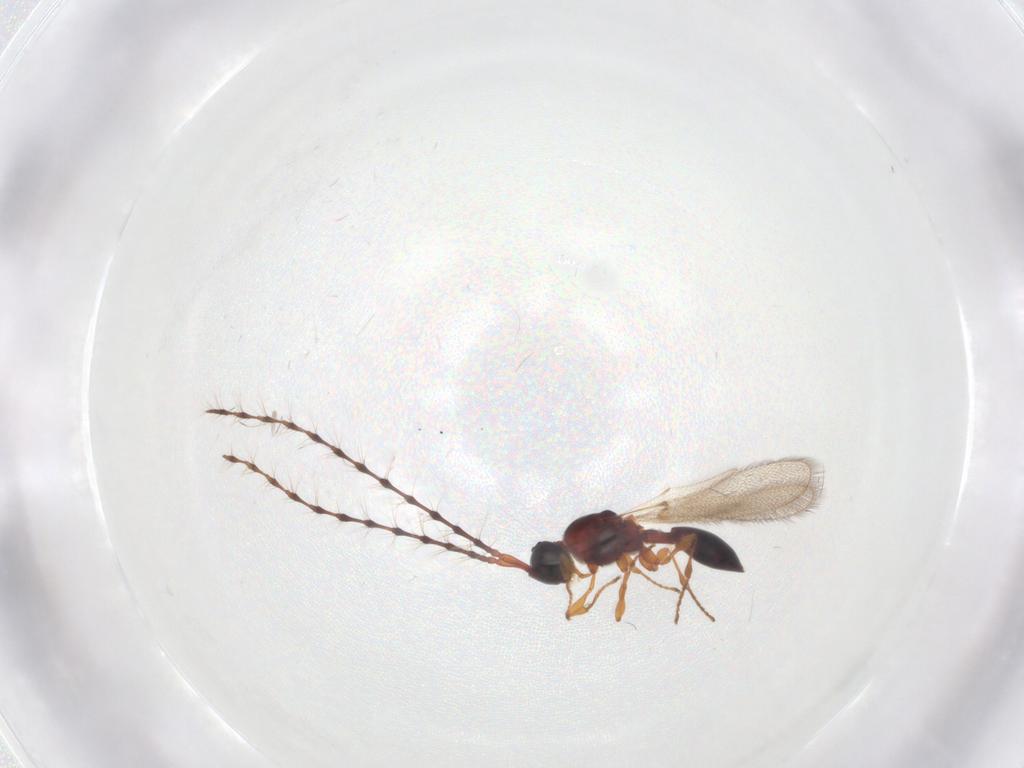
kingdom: Animalia
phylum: Arthropoda
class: Insecta
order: Hymenoptera
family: Diapriidae
